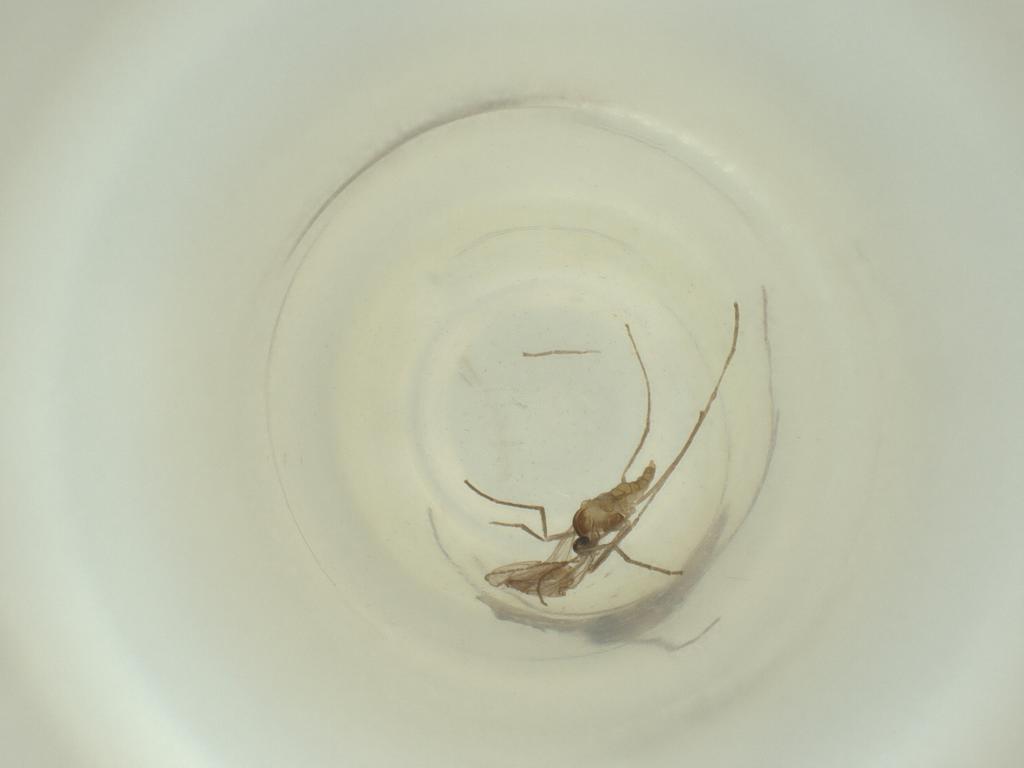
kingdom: Animalia
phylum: Arthropoda
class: Insecta
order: Diptera
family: Cecidomyiidae
